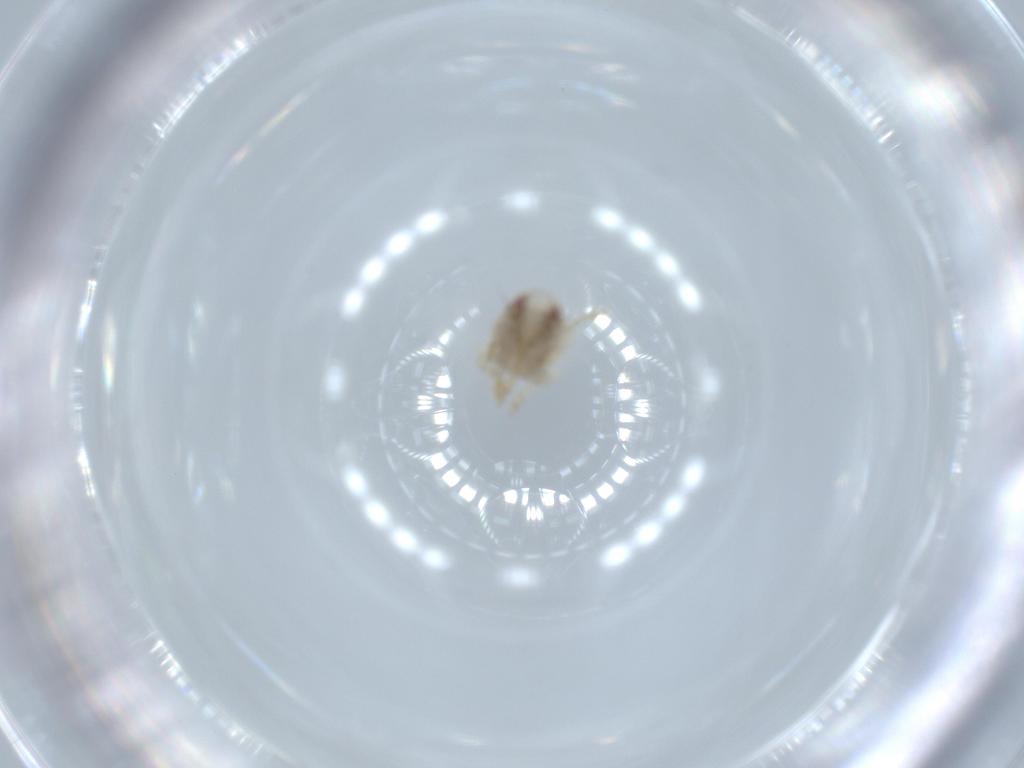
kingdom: Animalia
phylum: Arthropoda
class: Insecta
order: Hemiptera
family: Acanaloniidae
